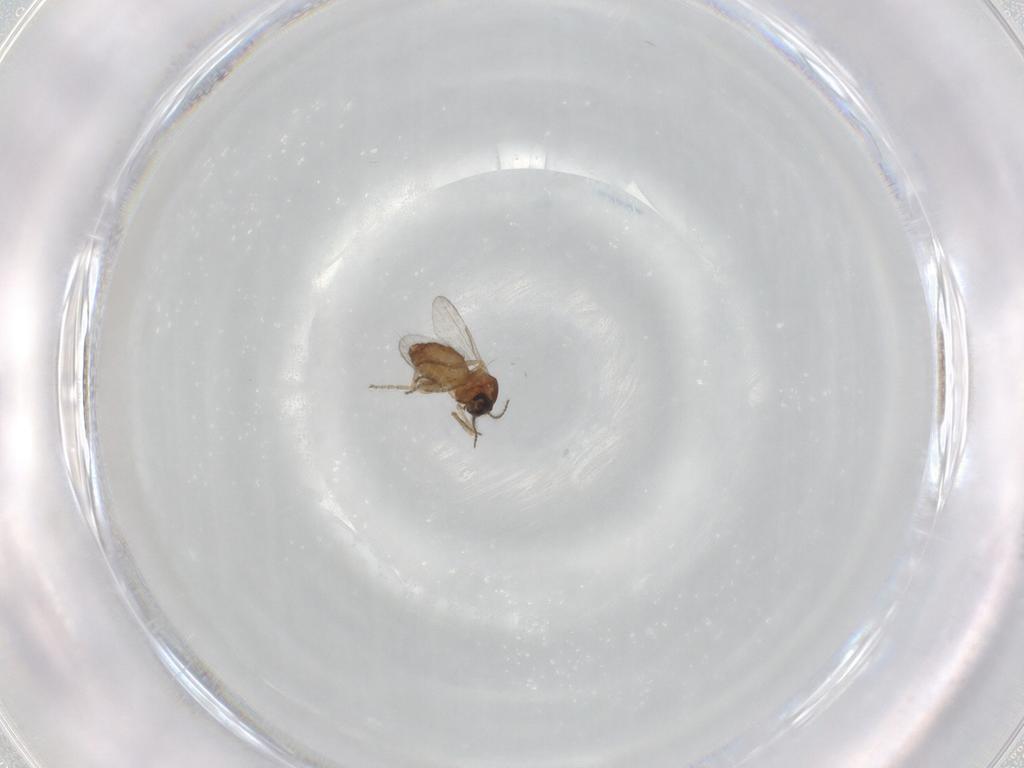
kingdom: Animalia
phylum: Arthropoda
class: Insecta
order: Diptera
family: Ceratopogonidae
